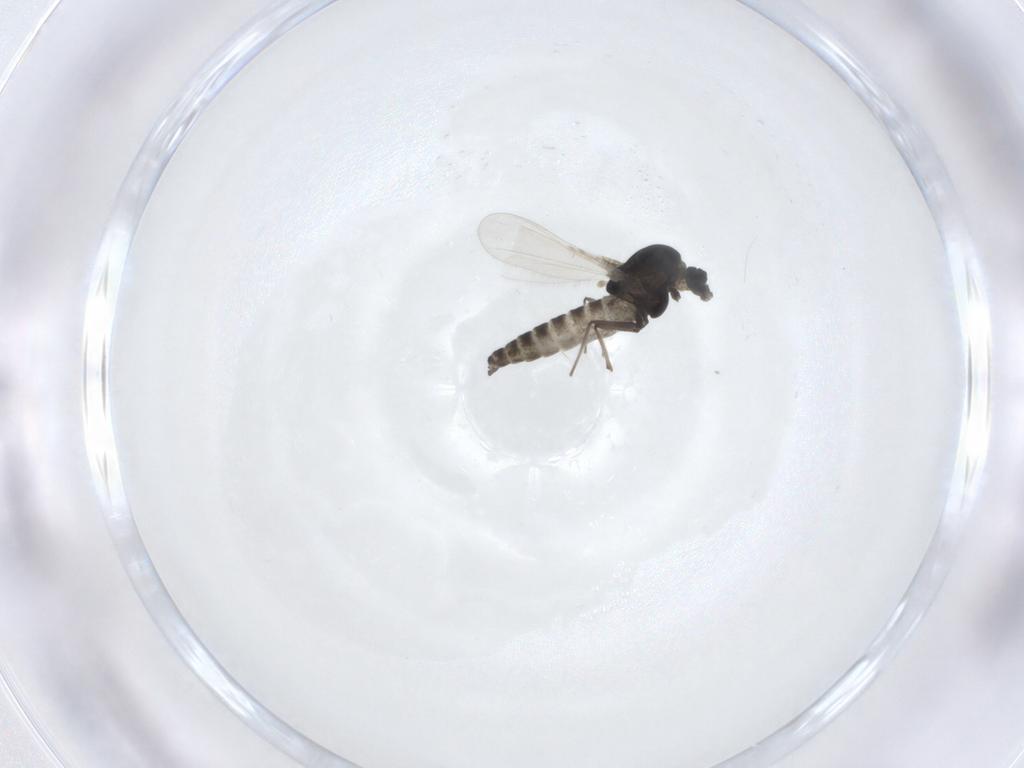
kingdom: Animalia
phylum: Arthropoda
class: Insecta
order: Diptera
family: Chironomidae
